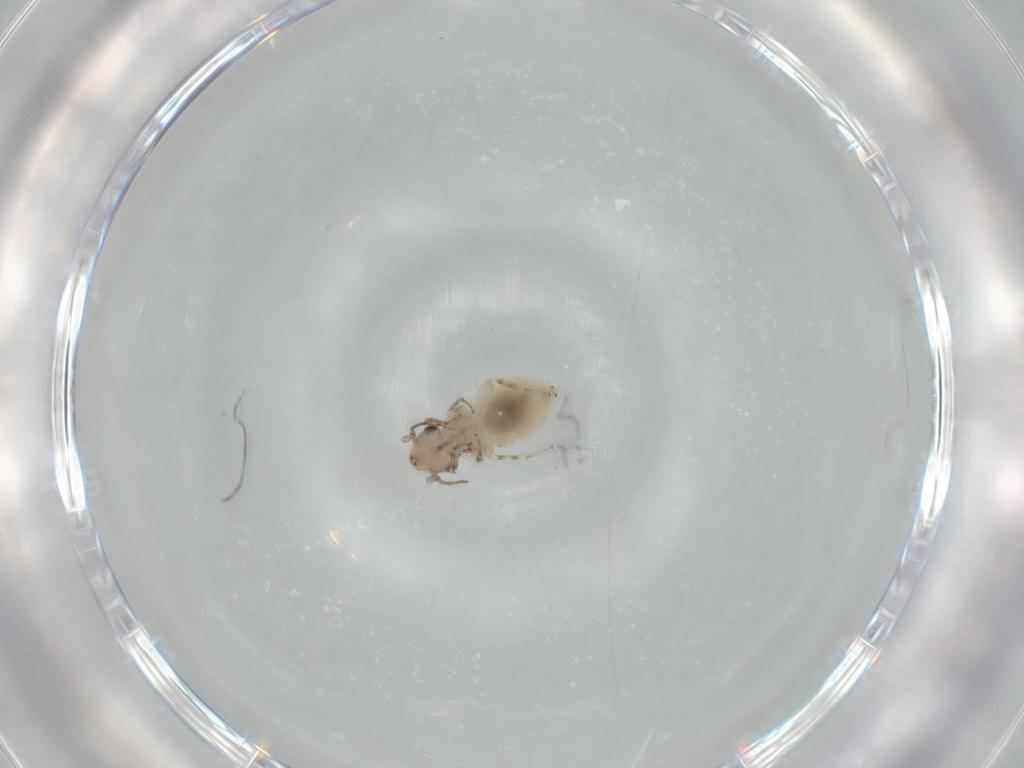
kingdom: Animalia
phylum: Arthropoda
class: Insecta
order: Psocodea
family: Lepidopsocidae
